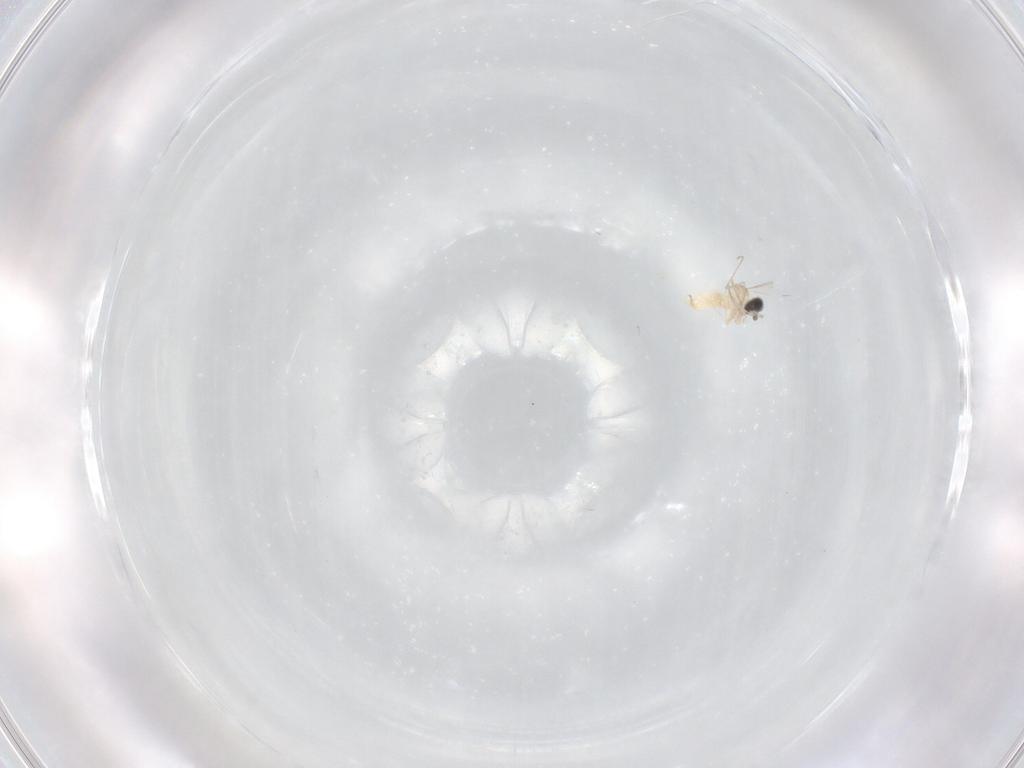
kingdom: Animalia
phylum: Arthropoda
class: Insecta
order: Diptera
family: Cecidomyiidae
